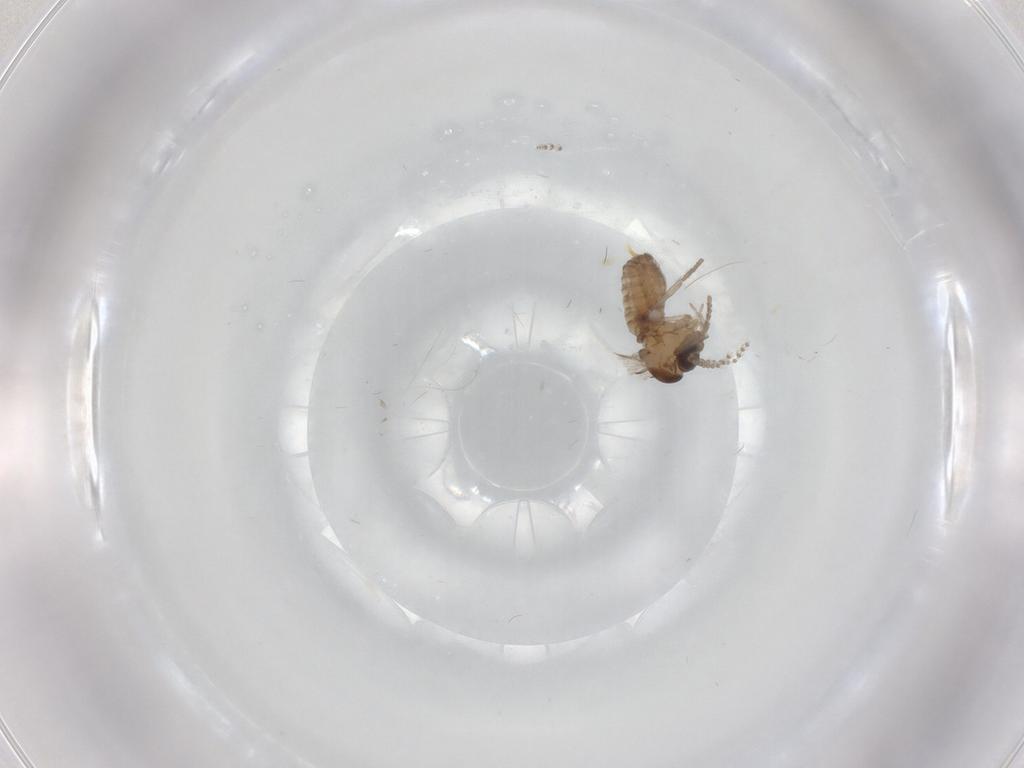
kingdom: Animalia
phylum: Arthropoda
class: Insecta
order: Diptera
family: Psychodidae
